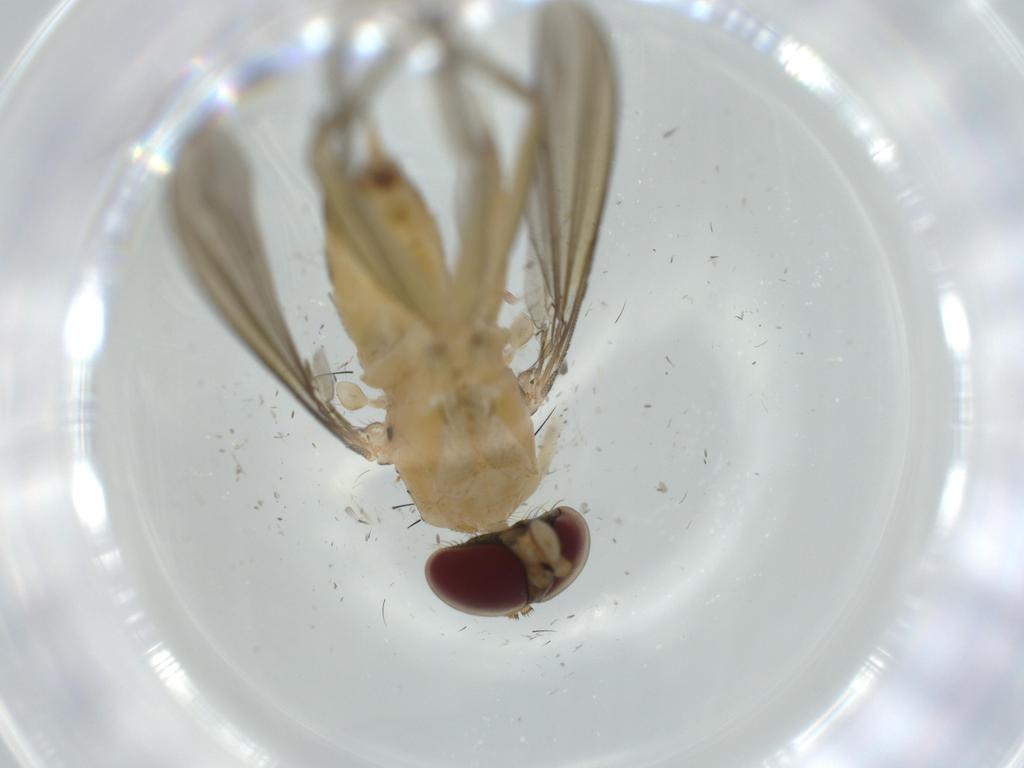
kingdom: Animalia
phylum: Arthropoda
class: Insecta
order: Diptera
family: Dolichopodidae
